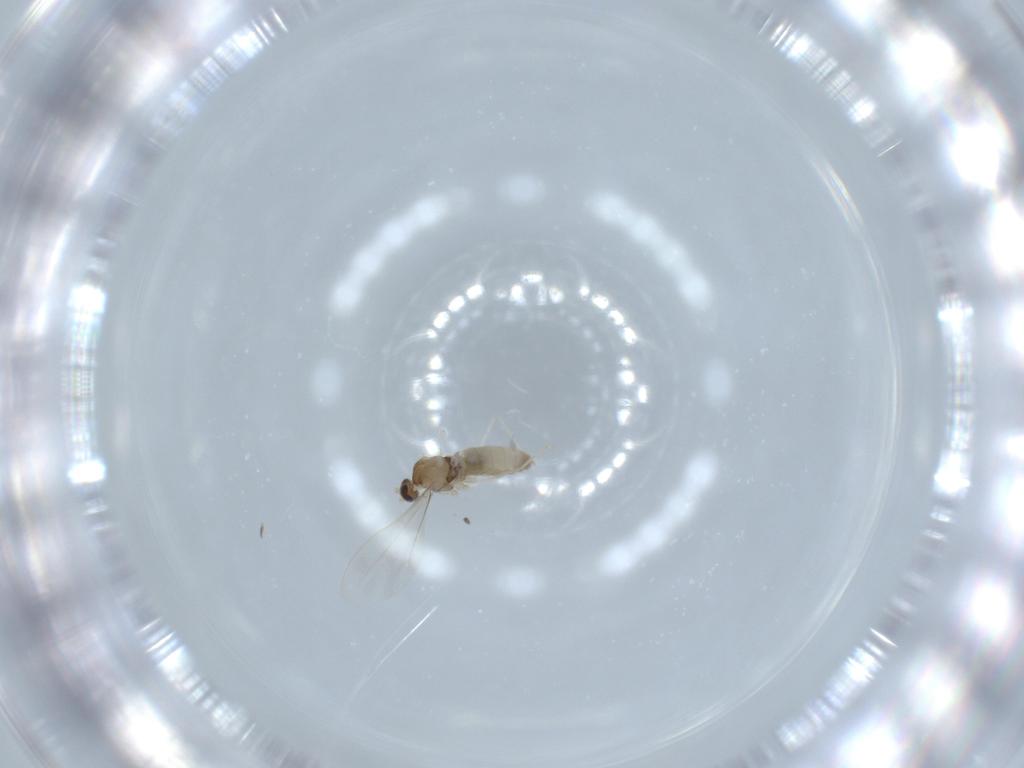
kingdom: Animalia
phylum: Arthropoda
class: Insecta
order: Diptera
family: Cecidomyiidae
